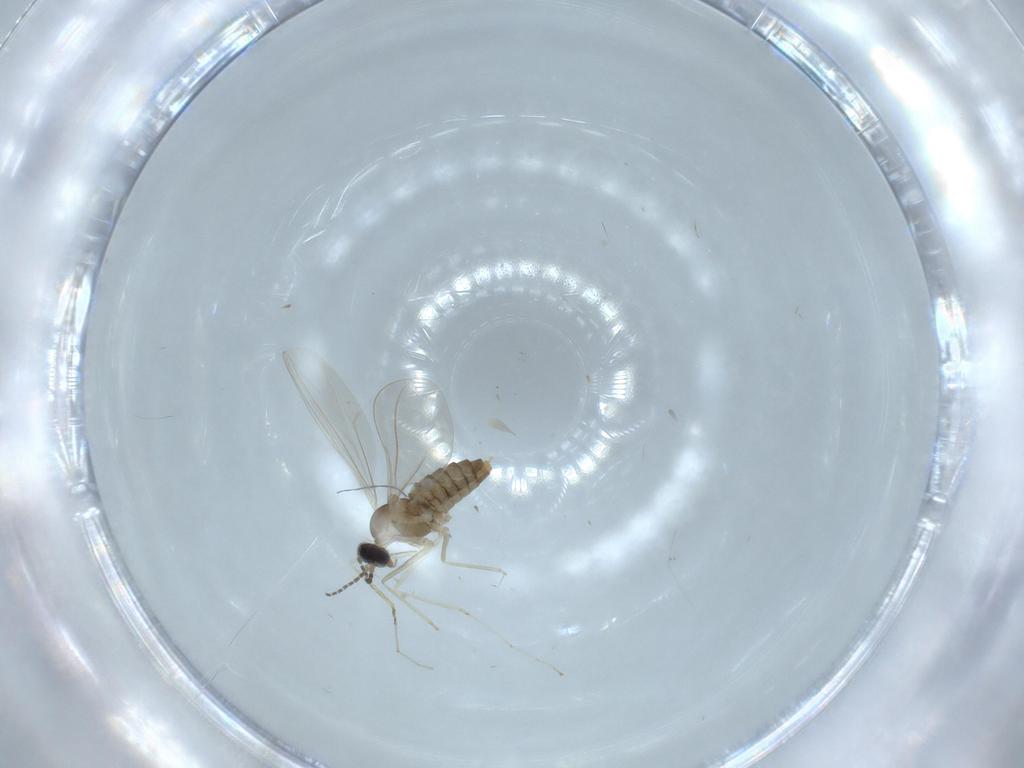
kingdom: Animalia
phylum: Arthropoda
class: Insecta
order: Diptera
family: Cecidomyiidae
